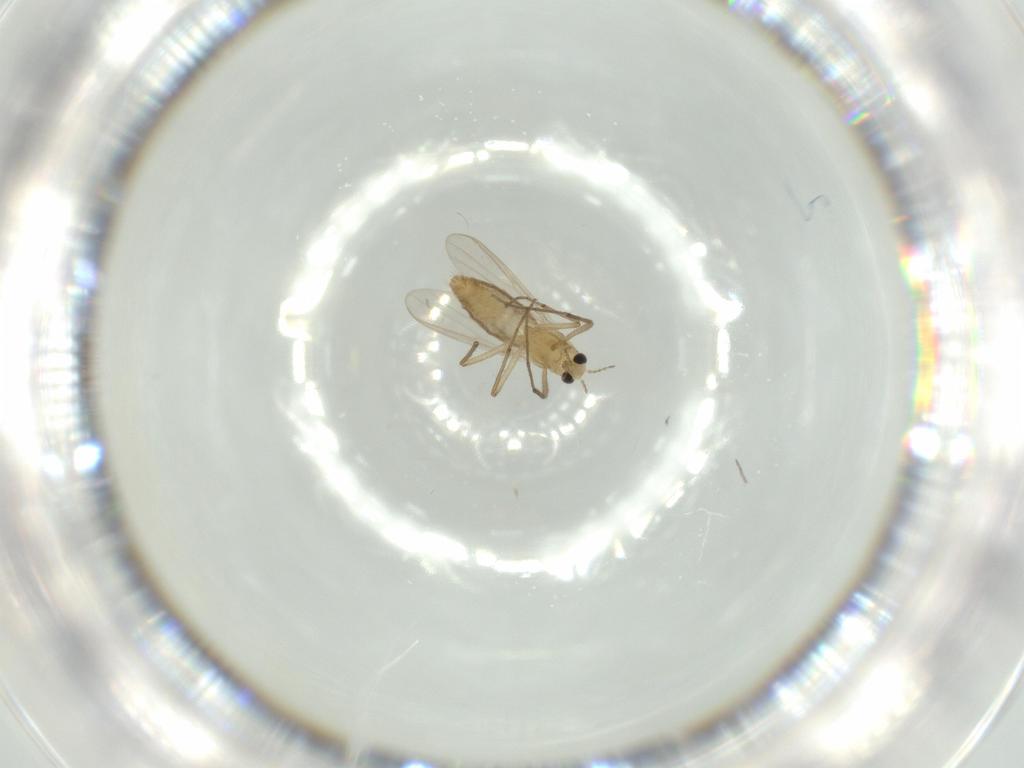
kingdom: Animalia
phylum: Arthropoda
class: Insecta
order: Diptera
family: Chironomidae
